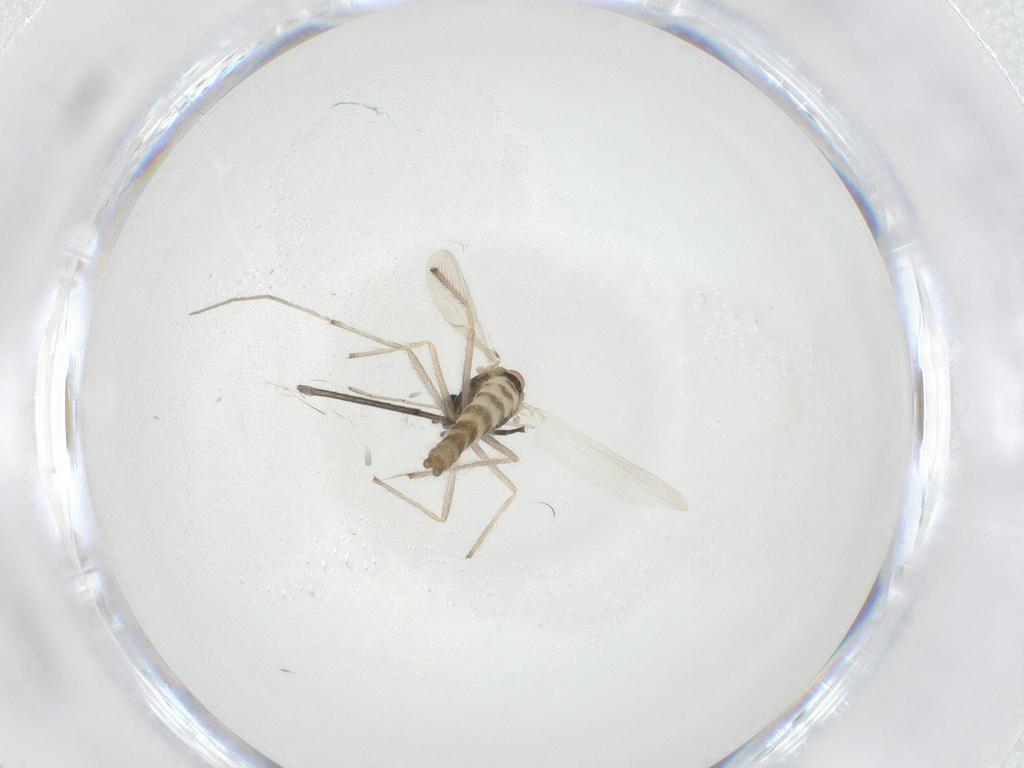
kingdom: Animalia
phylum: Arthropoda
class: Insecta
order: Diptera
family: Chironomidae
